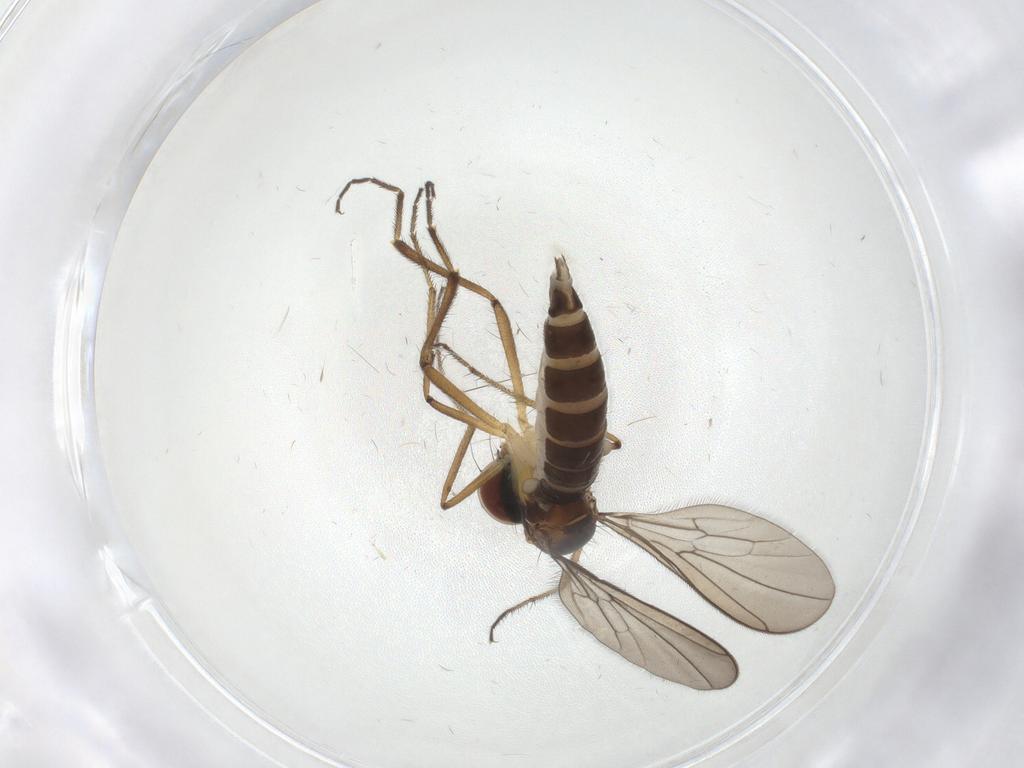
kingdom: Animalia
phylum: Arthropoda
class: Insecta
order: Diptera
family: Hybotidae
